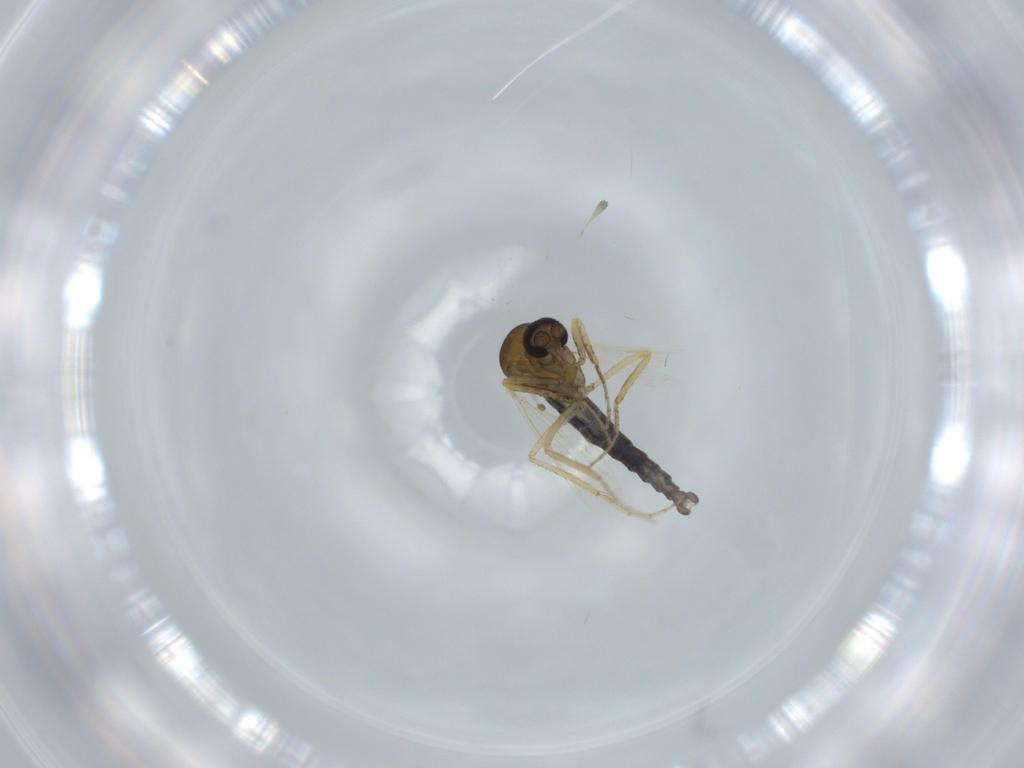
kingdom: Animalia
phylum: Arthropoda
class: Insecta
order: Diptera
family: Ceratopogonidae
